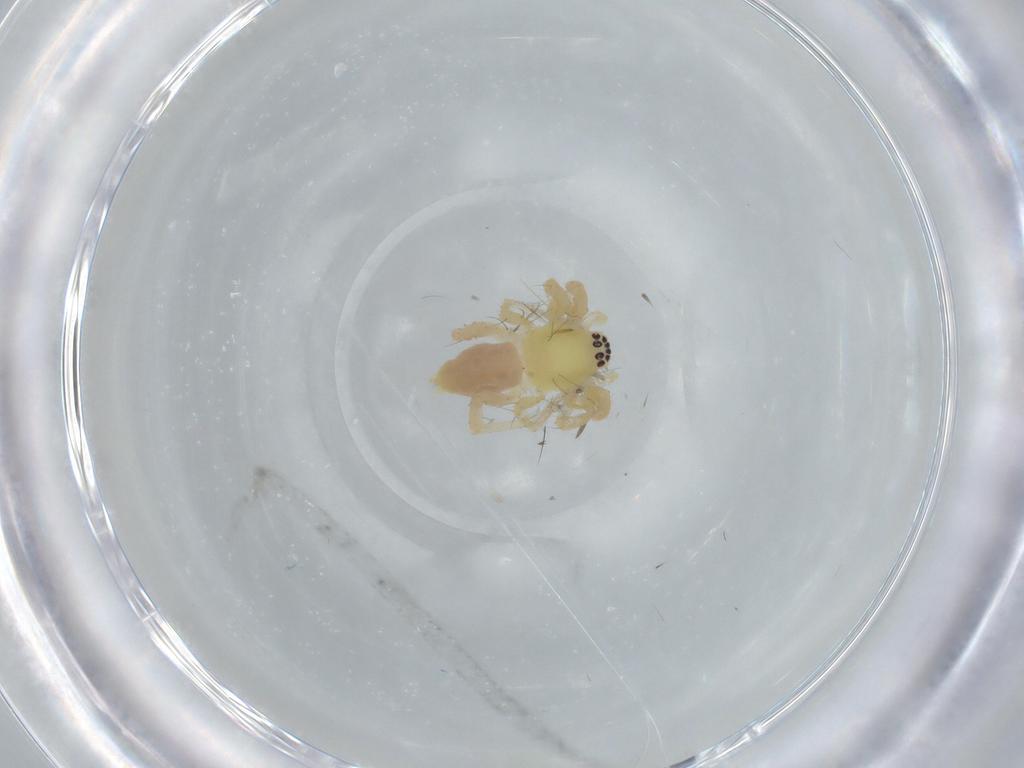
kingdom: Animalia
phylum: Arthropoda
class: Arachnida
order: Araneae
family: Anyphaenidae
